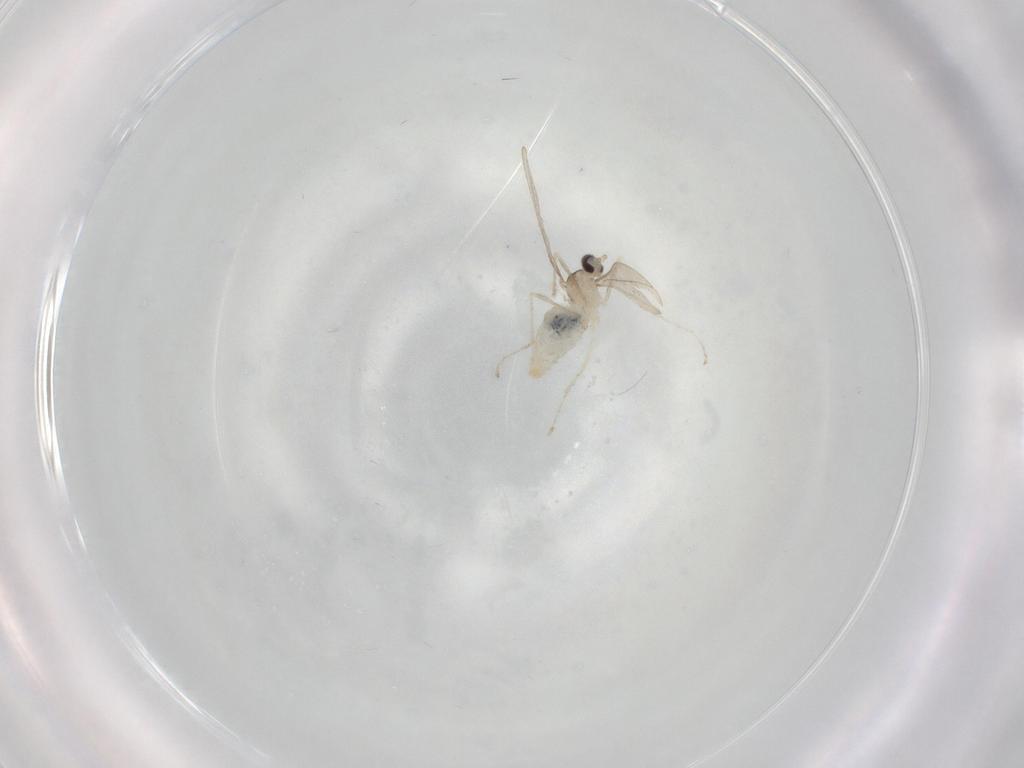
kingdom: Animalia
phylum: Arthropoda
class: Insecta
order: Diptera
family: Cecidomyiidae
